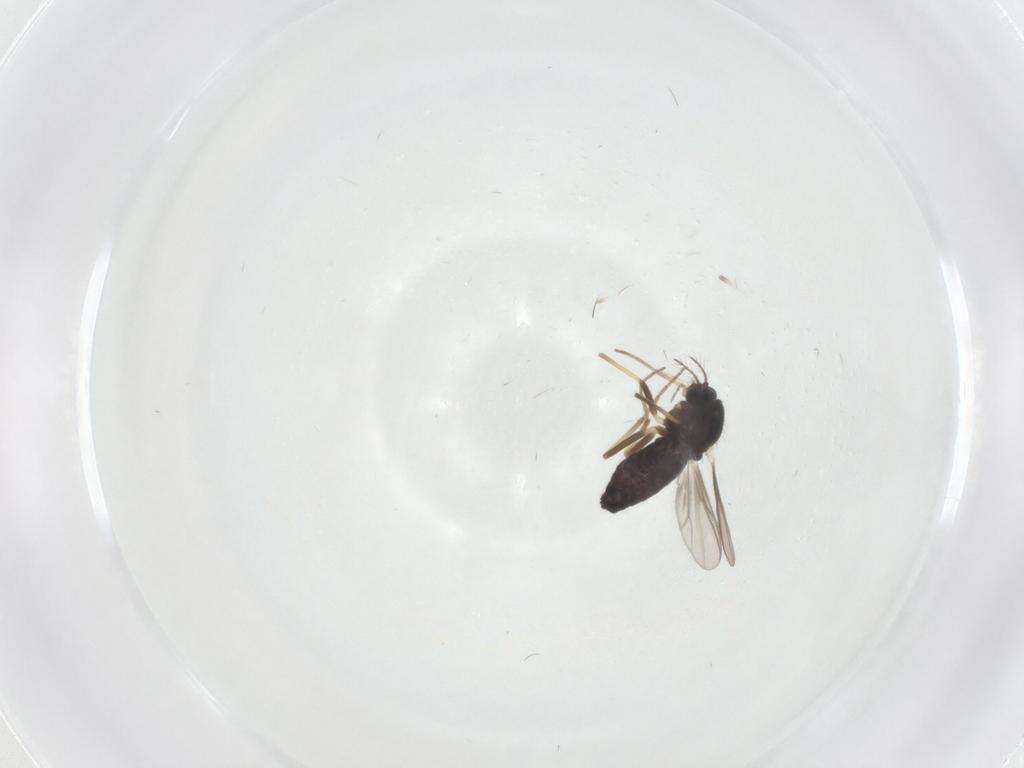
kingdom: Animalia
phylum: Arthropoda
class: Insecta
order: Diptera
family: Chironomidae
